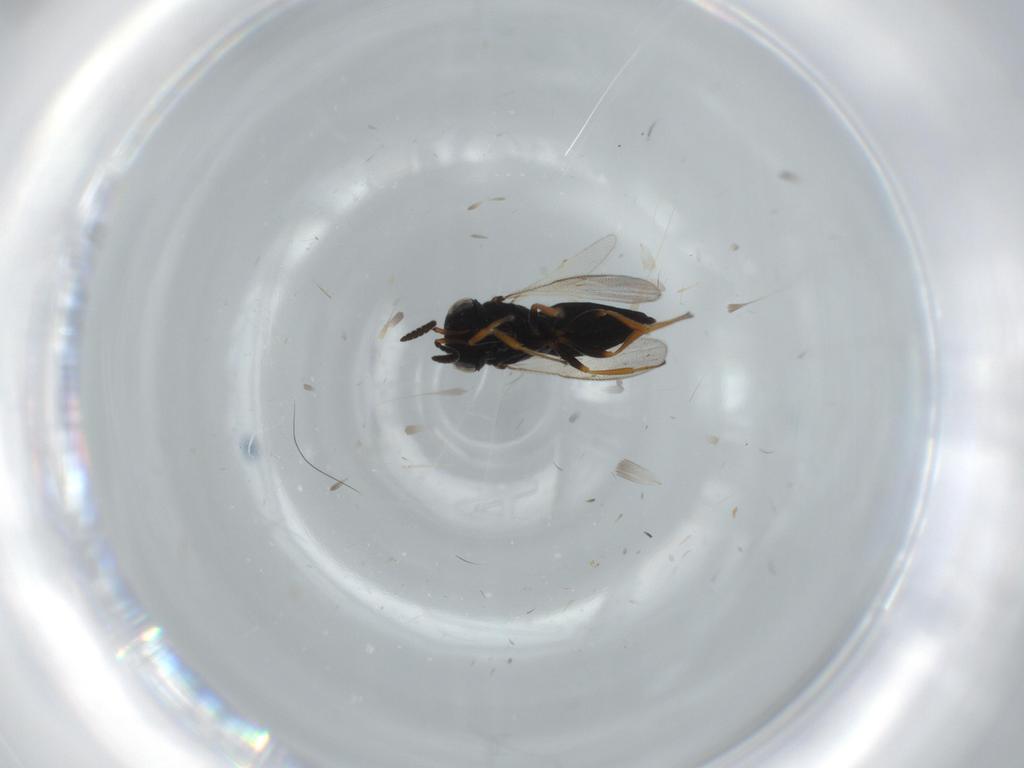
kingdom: Animalia
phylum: Arthropoda
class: Insecta
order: Hymenoptera
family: Scelionidae
